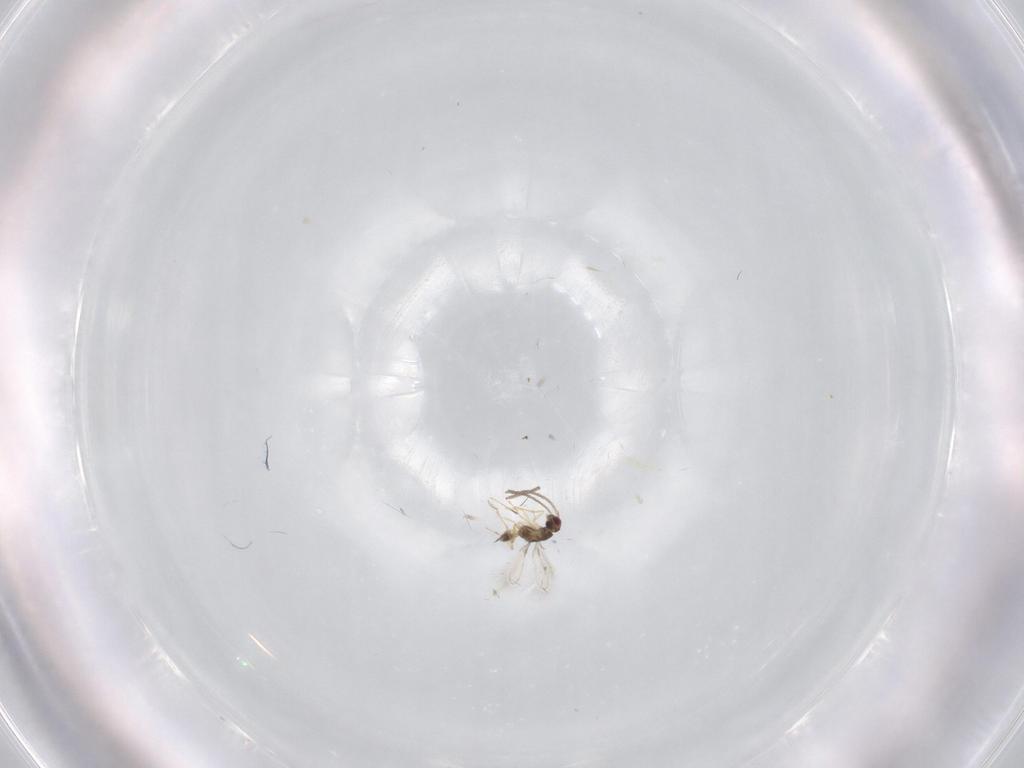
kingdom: Animalia
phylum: Arthropoda
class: Insecta
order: Hymenoptera
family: Mymaridae
